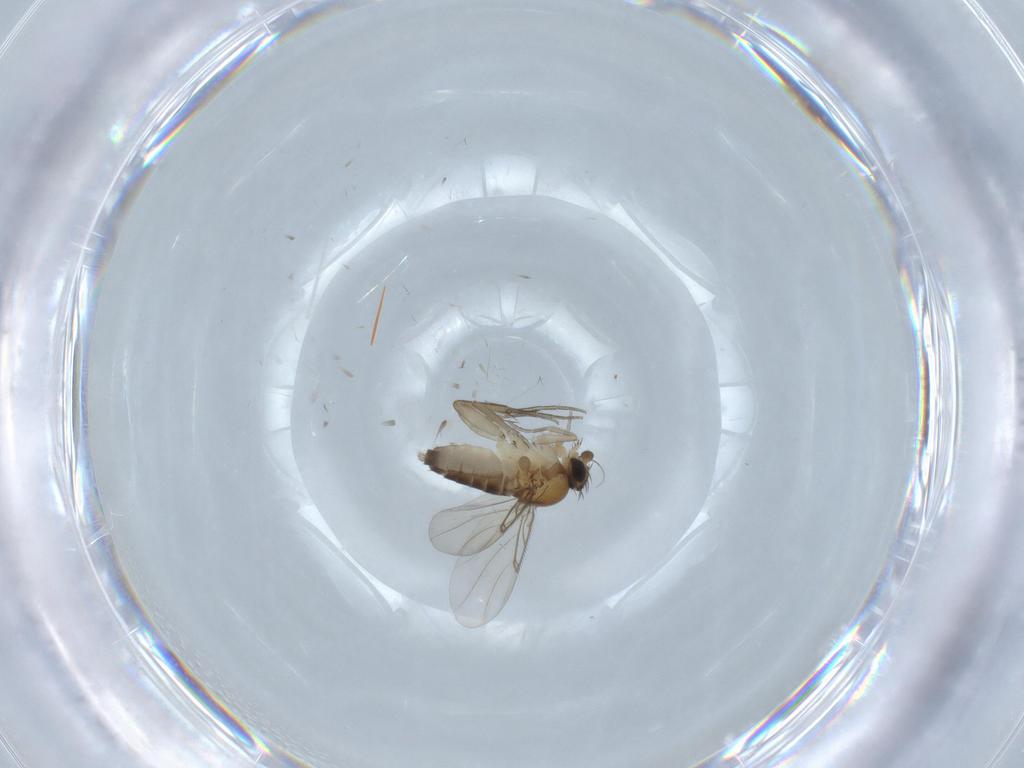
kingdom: Animalia
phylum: Arthropoda
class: Insecta
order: Diptera
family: Phoridae
